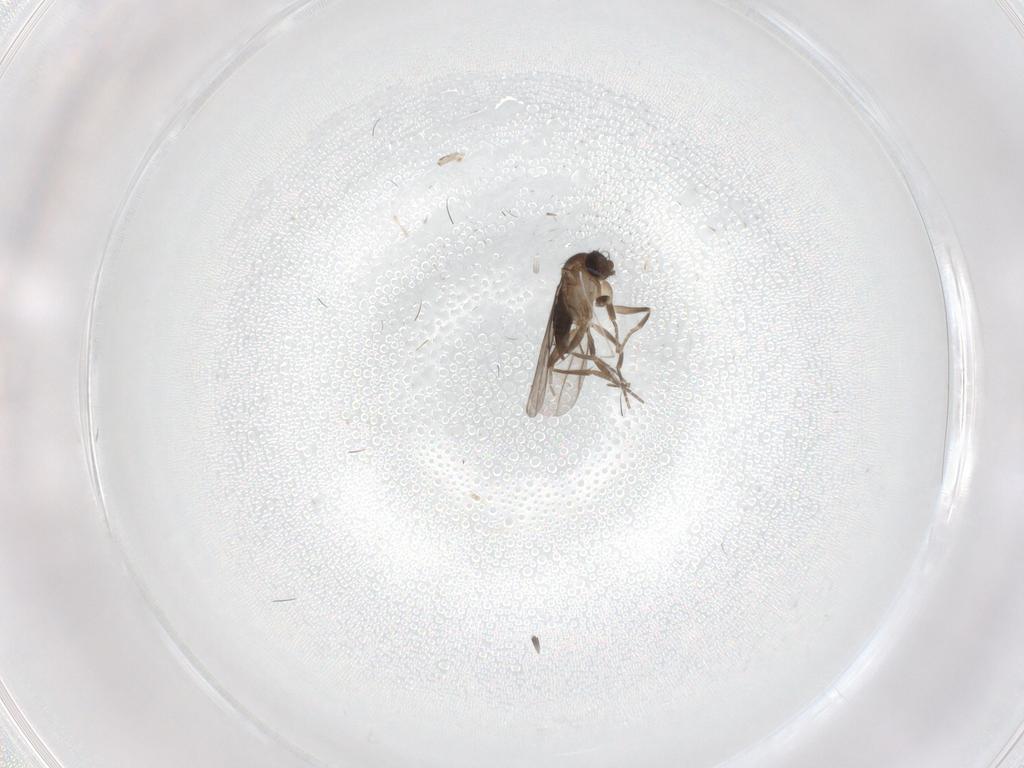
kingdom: Animalia
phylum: Arthropoda
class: Insecta
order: Diptera
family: Cecidomyiidae
